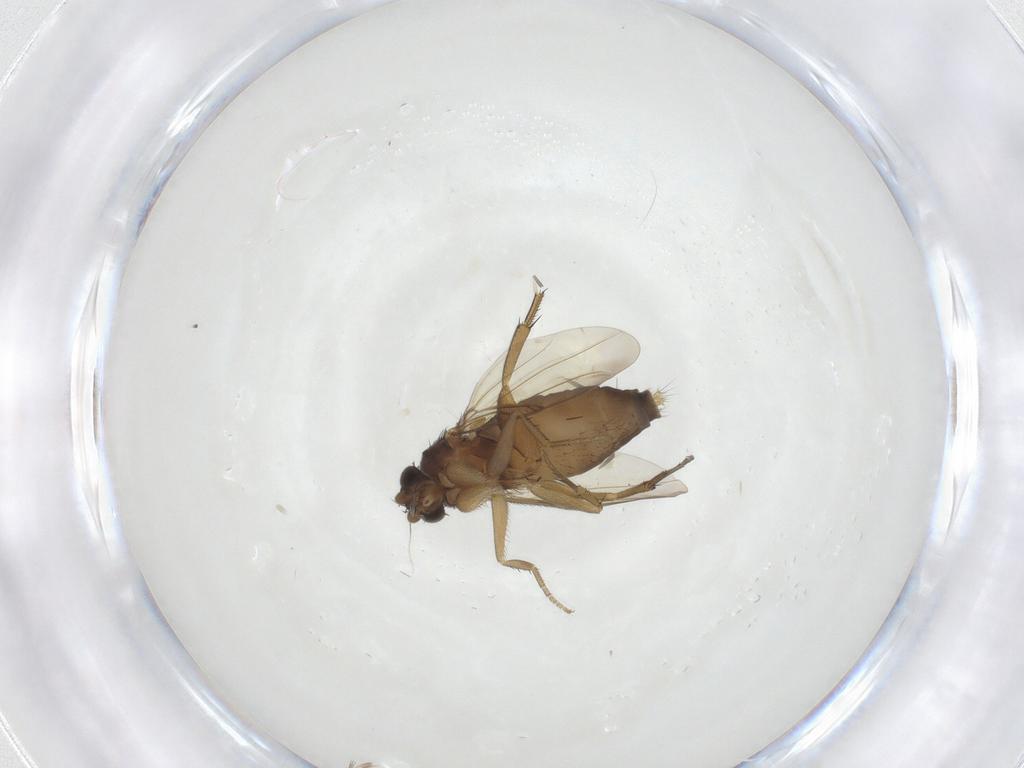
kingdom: Animalia
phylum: Arthropoda
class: Insecta
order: Diptera
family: Phoridae
